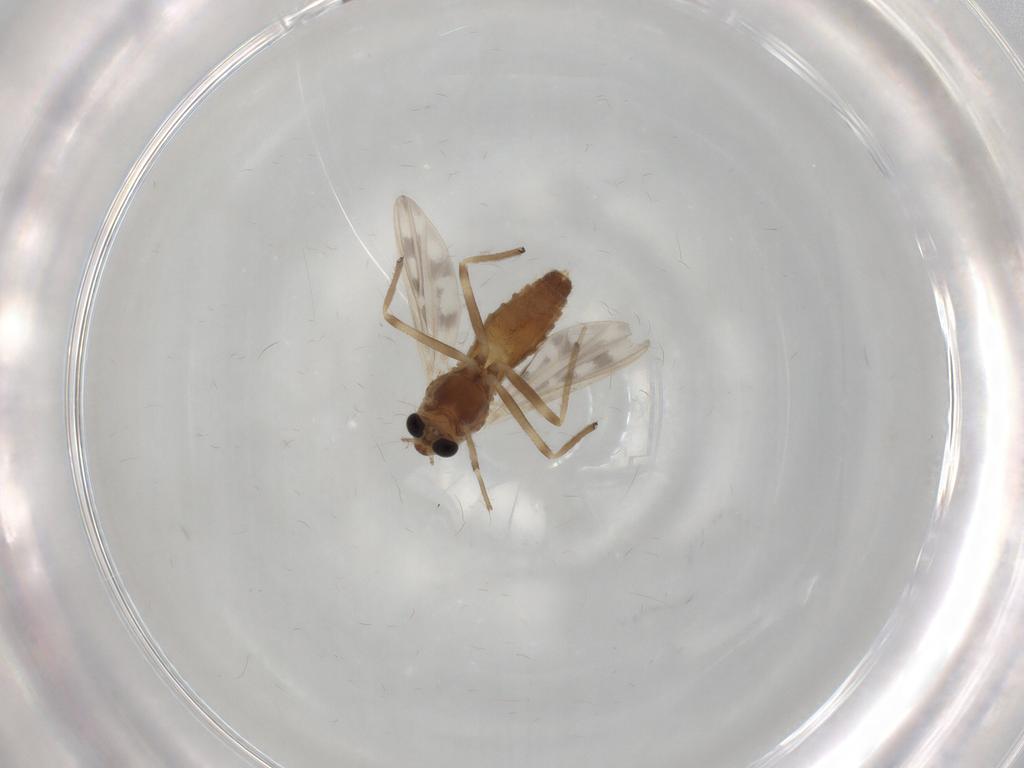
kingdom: Animalia
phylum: Arthropoda
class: Insecta
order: Diptera
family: Chironomidae
